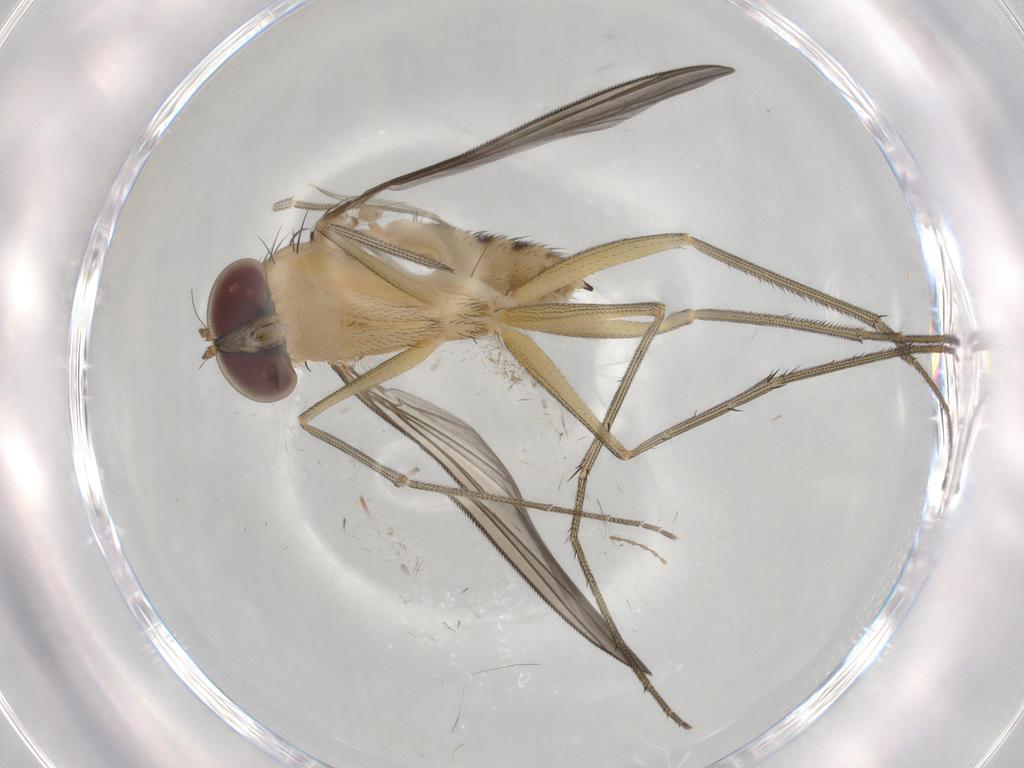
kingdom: Animalia
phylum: Arthropoda
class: Insecta
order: Diptera
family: Dolichopodidae
